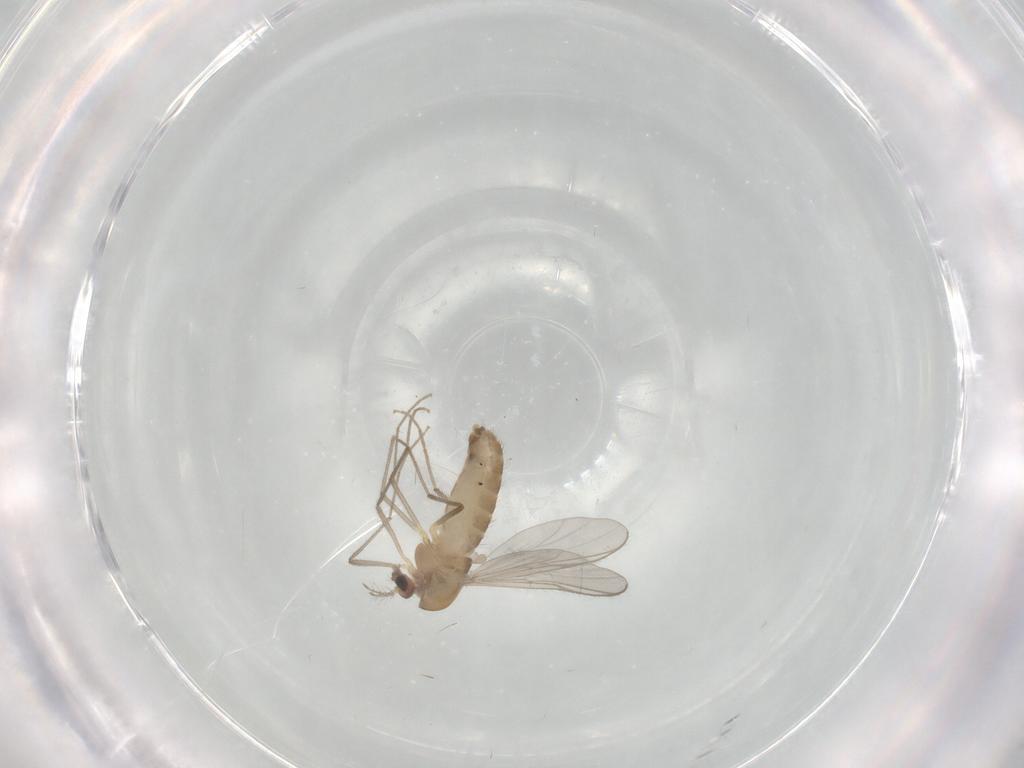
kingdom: Animalia
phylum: Arthropoda
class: Insecta
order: Diptera
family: Chironomidae
